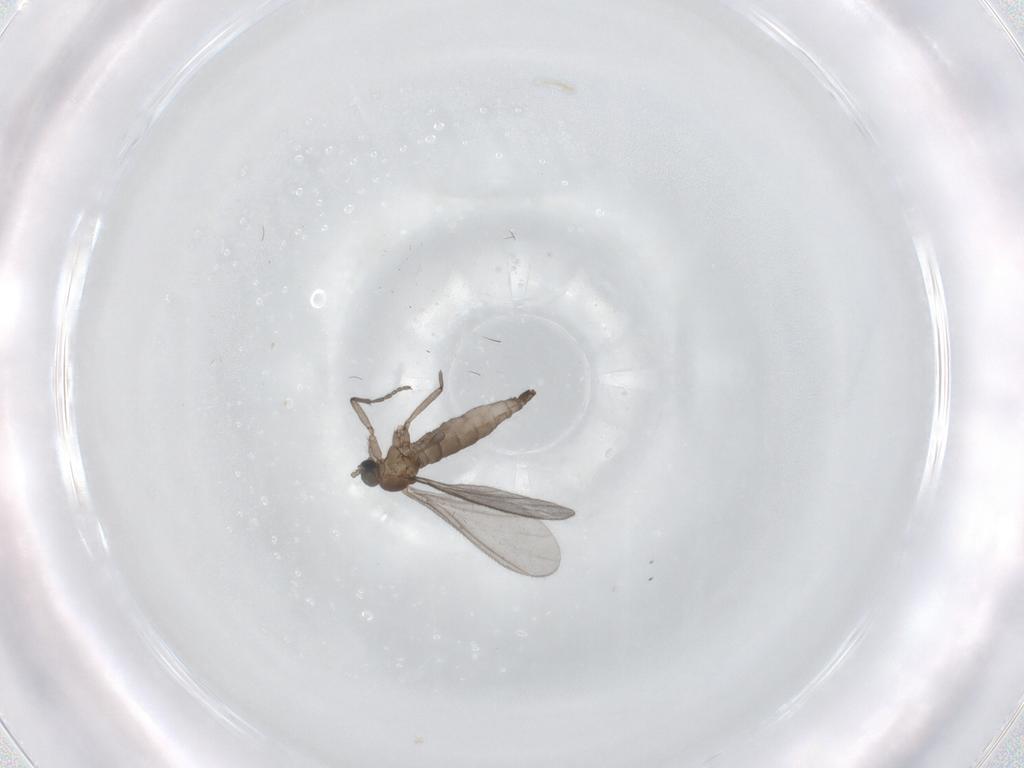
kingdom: Animalia
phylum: Arthropoda
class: Insecta
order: Diptera
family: Sciaridae
